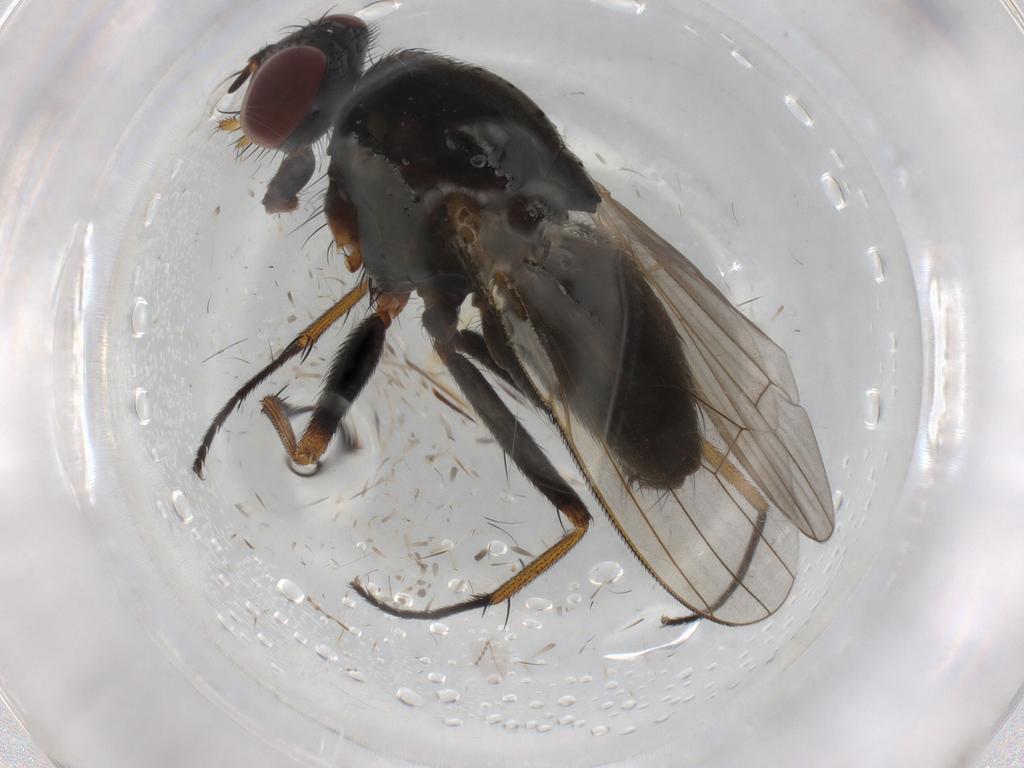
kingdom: Animalia
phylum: Arthropoda
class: Insecta
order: Diptera
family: Muscidae
